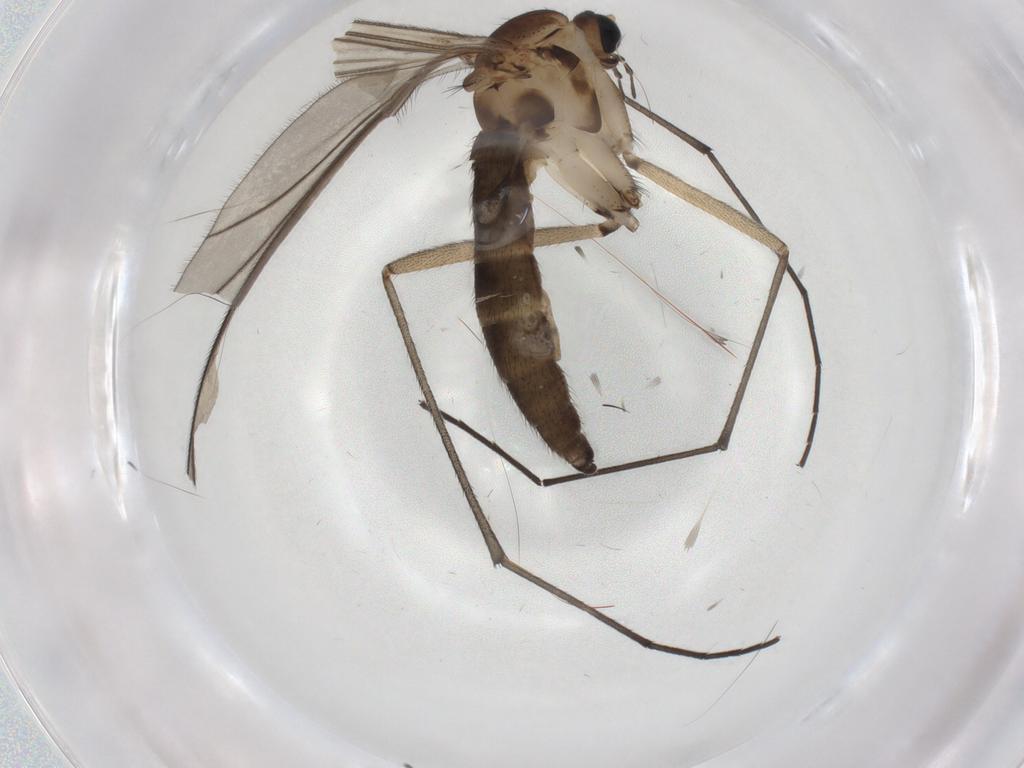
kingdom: Animalia
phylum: Arthropoda
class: Insecta
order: Diptera
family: Sciaridae
